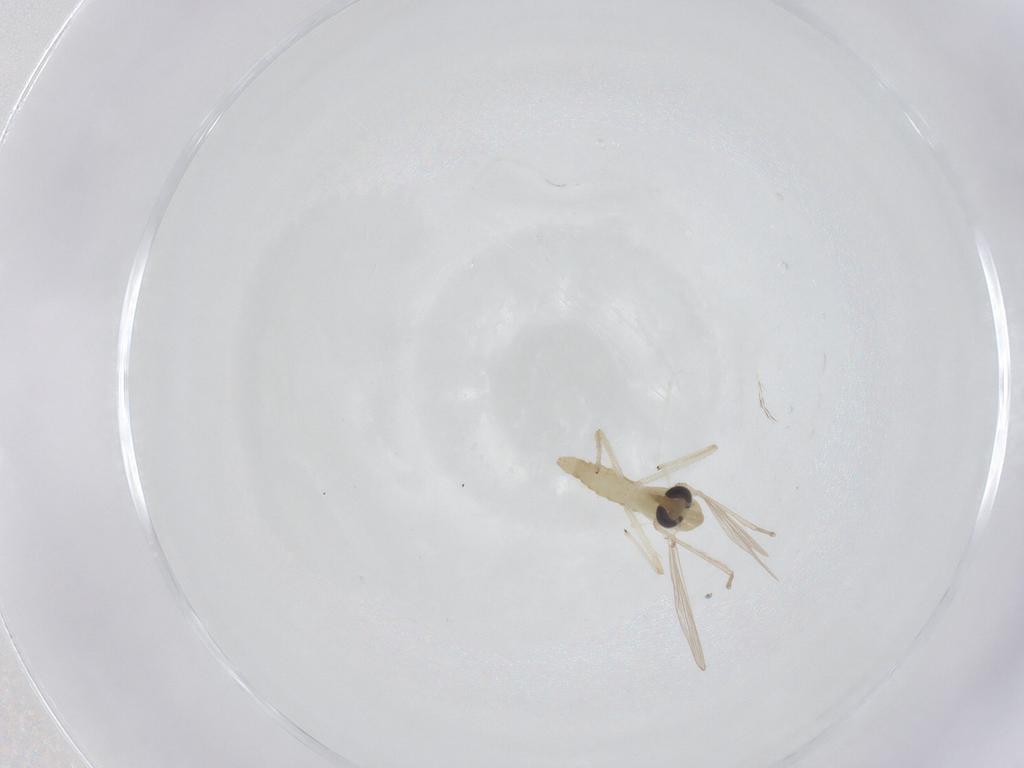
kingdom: Animalia
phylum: Arthropoda
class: Insecta
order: Diptera
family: Chironomidae
